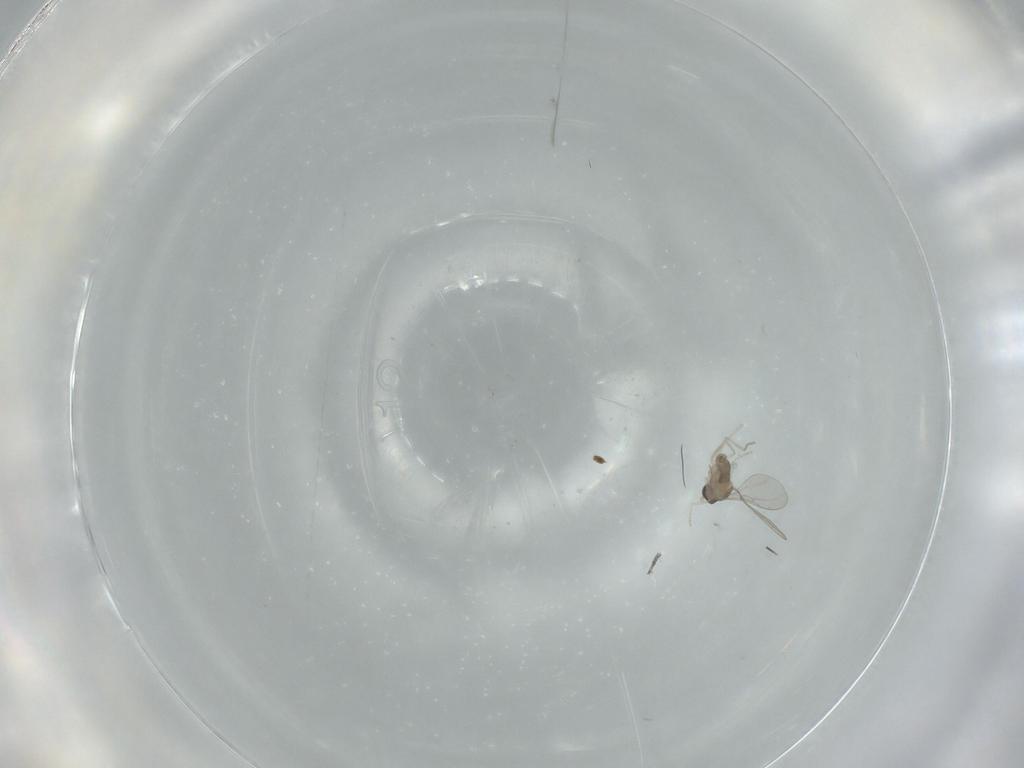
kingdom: Animalia
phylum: Arthropoda
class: Insecta
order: Diptera
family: Cecidomyiidae
